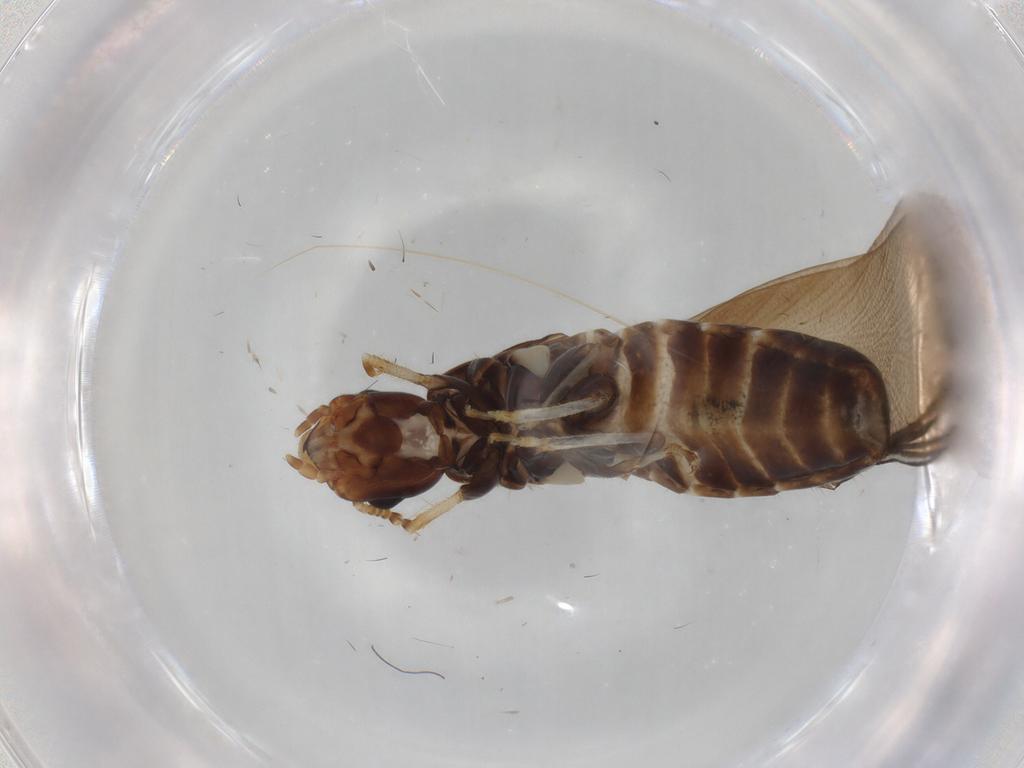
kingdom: Animalia
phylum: Arthropoda
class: Insecta
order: Blattodea
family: Kalotermitidae
